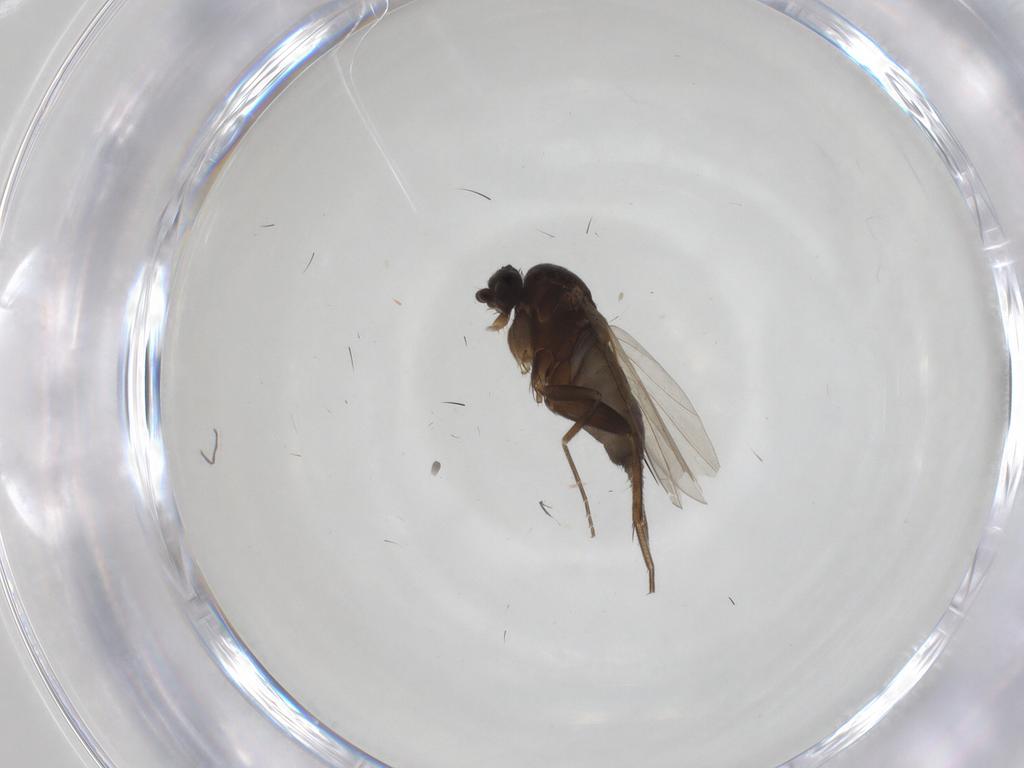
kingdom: Animalia
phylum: Arthropoda
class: Insecta
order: Diptera
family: Phoridae
